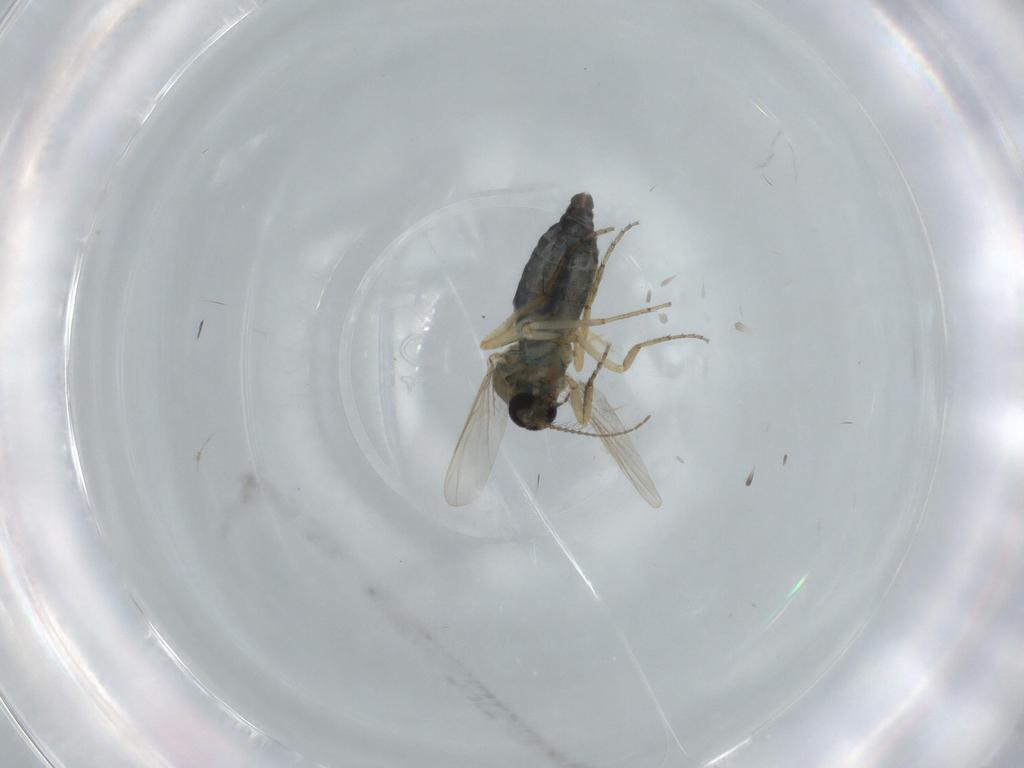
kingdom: Animalia
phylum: Arthropoda
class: Insecta
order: Diptera
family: Ceratopogonidae
